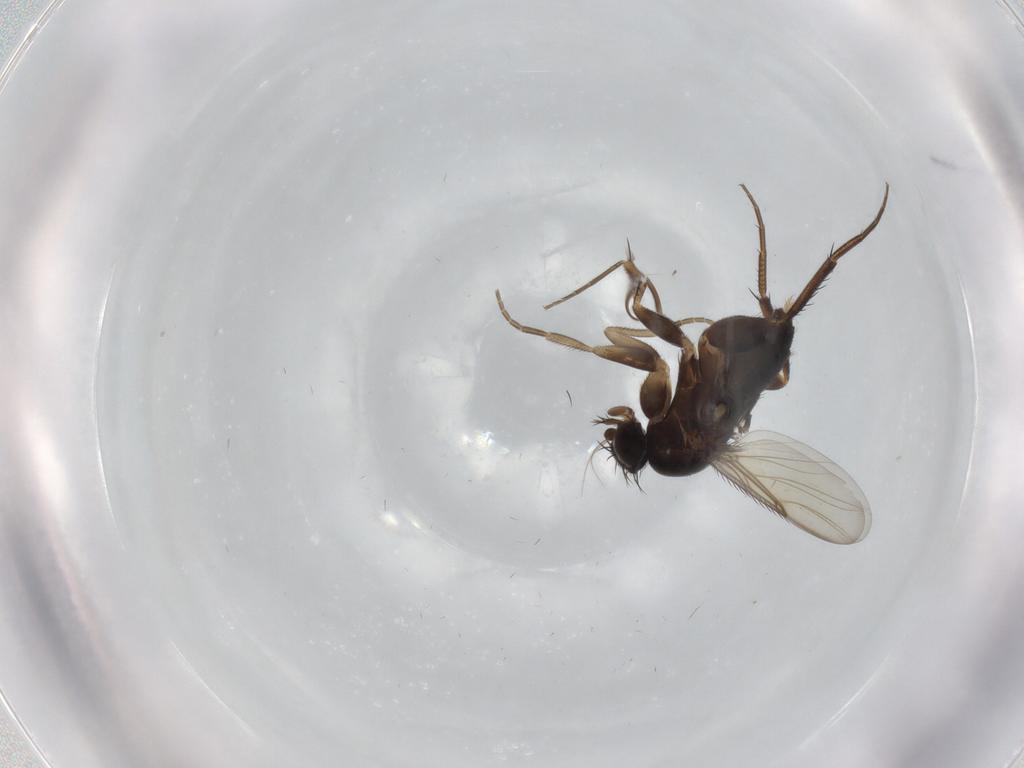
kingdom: Animalia
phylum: Arthropoda
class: Insecta
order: Diptera
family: Phoridae
